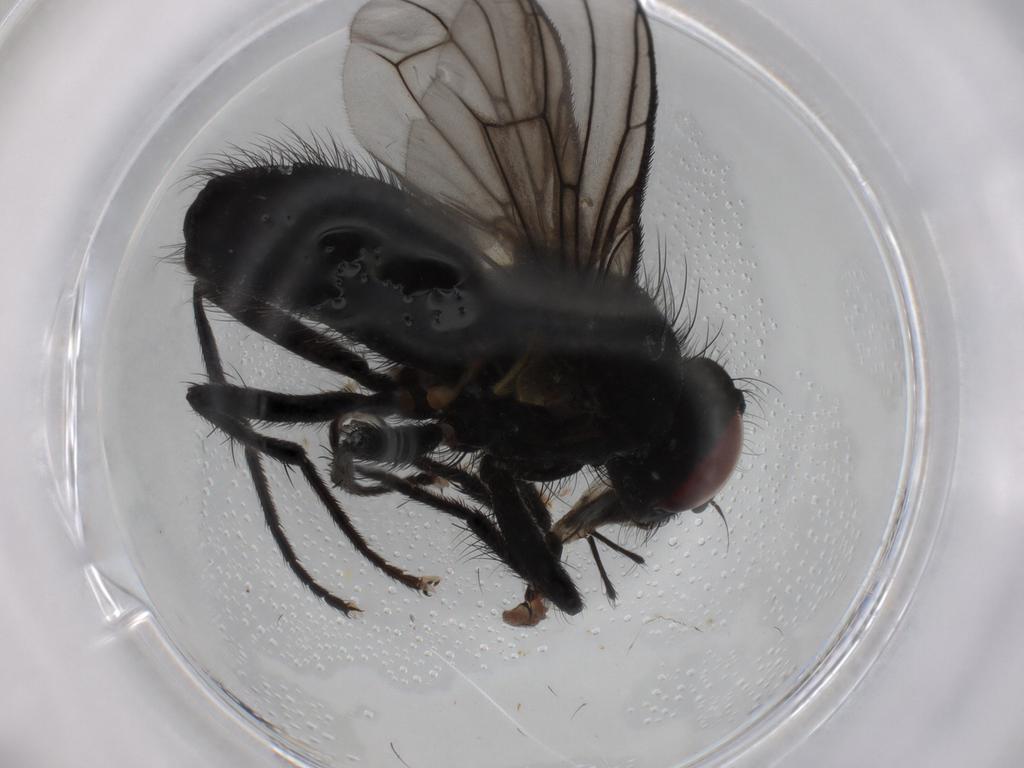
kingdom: Animalia
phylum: Arthropoda
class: Insecta
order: Diptera
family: Muscidae
